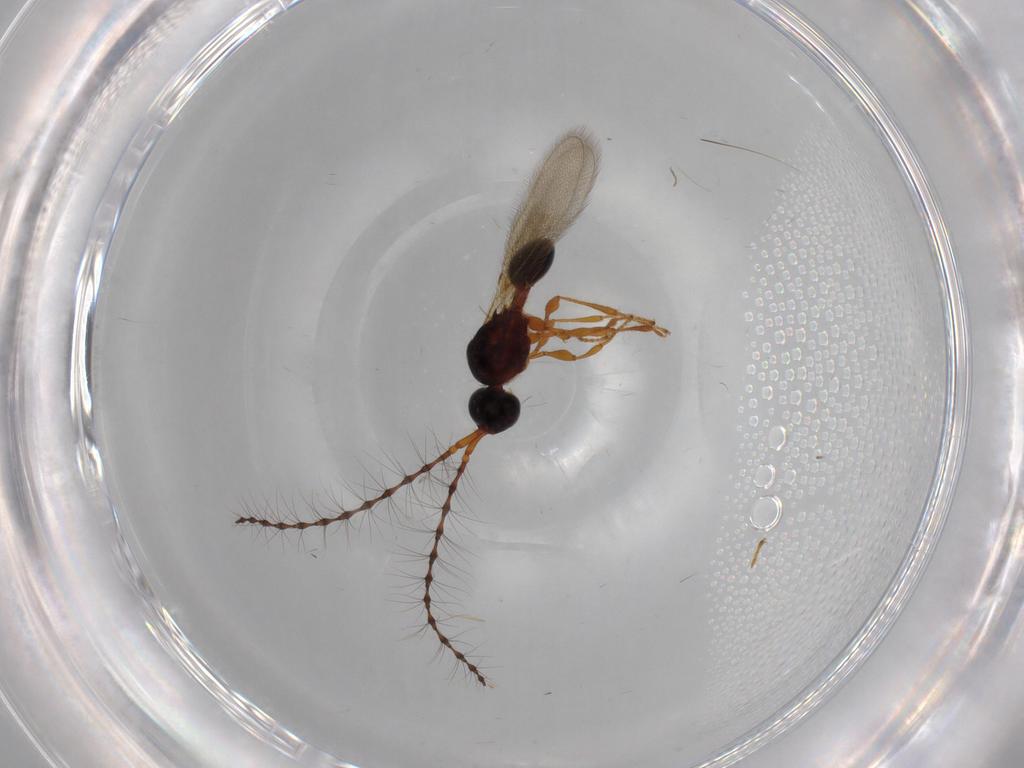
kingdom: Animalia
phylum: Arthropoda
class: Insecta
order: Hymenoptera
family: Diapriidae
